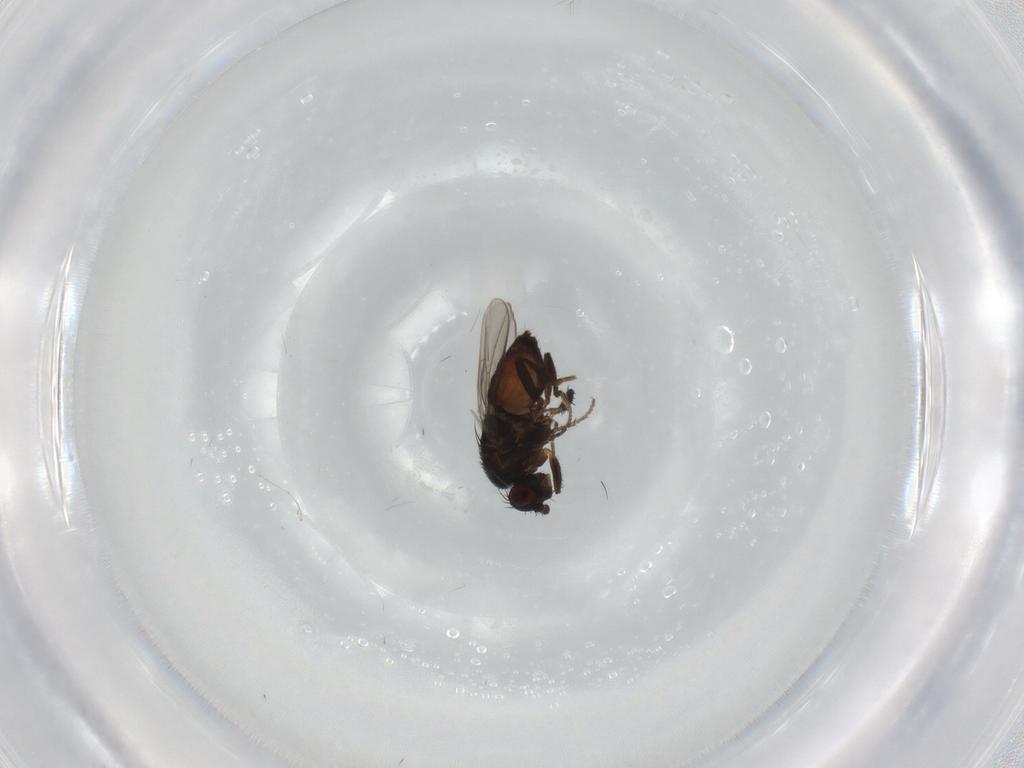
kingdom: Animalia
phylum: Arthropoda
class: Insecta
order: Diptera
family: Sphaeroceridae
